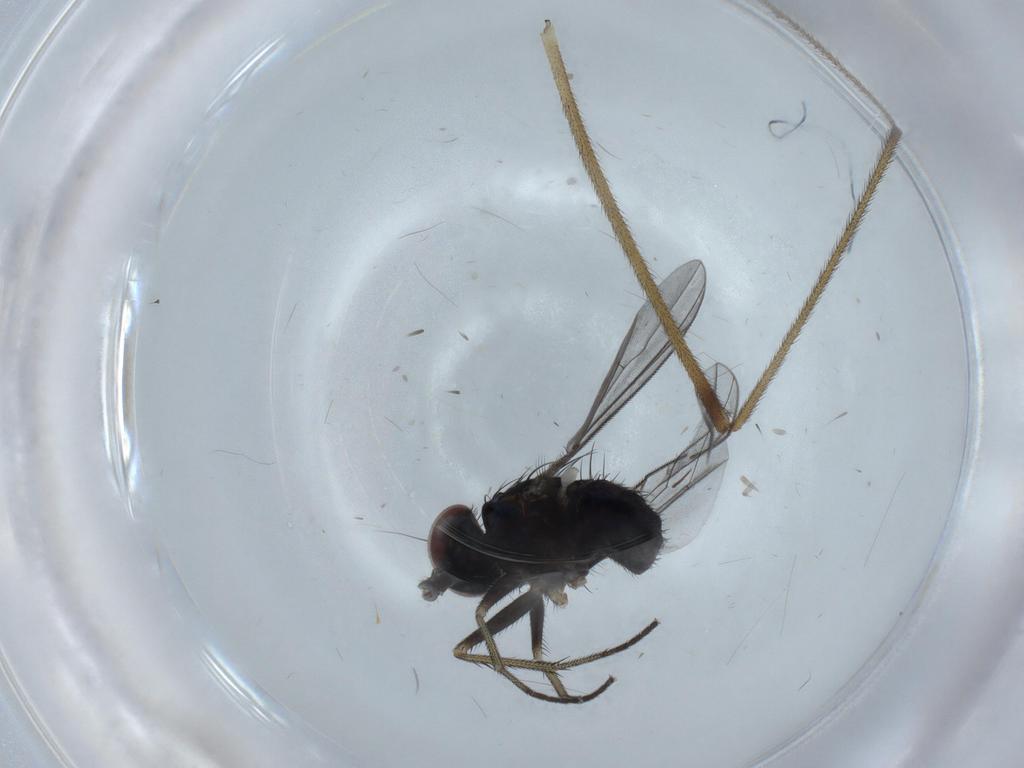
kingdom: Animalia
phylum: Arthropoda
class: Insecta
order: Diptera
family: Dolichopodidae
